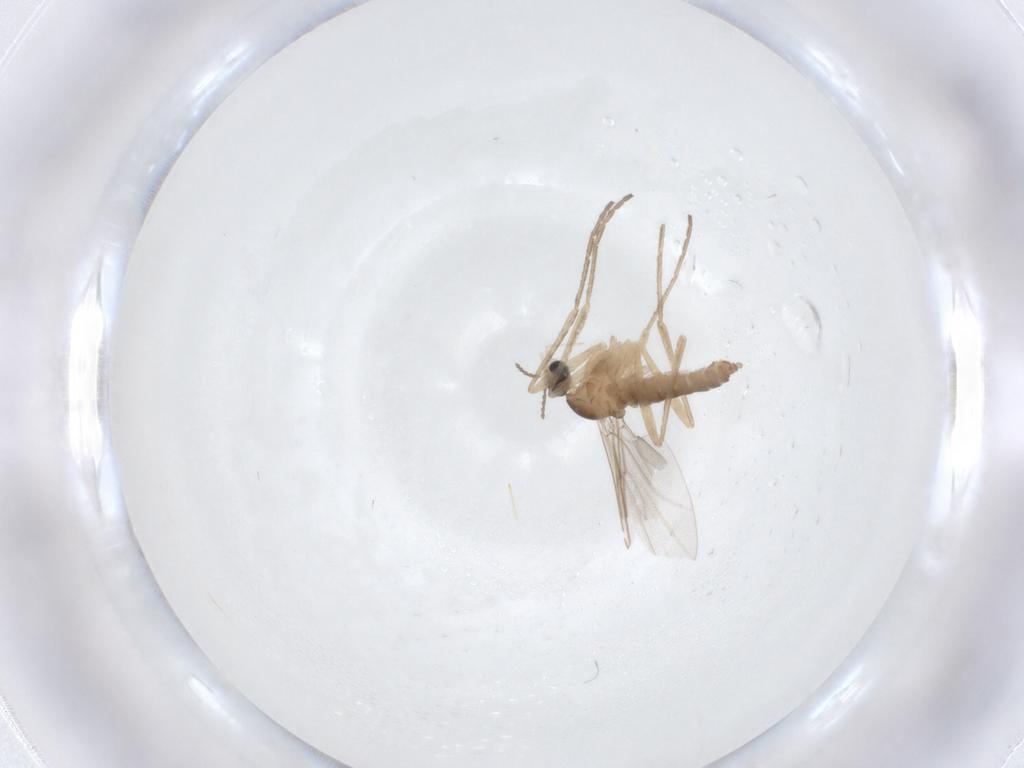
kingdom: Animalia
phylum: Arthropoda
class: Insecta
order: Diptera
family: Cecidomyiidae
